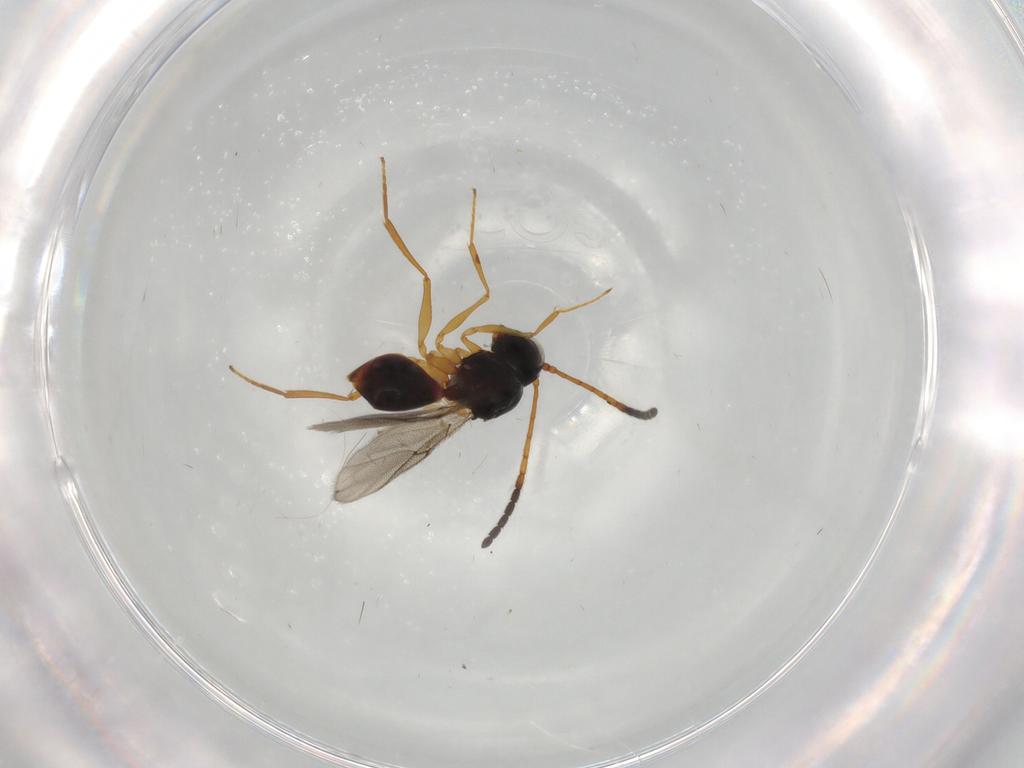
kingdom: Animalia
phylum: Arthropoda
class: Insecta
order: Hymenoptera
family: Figitidae
